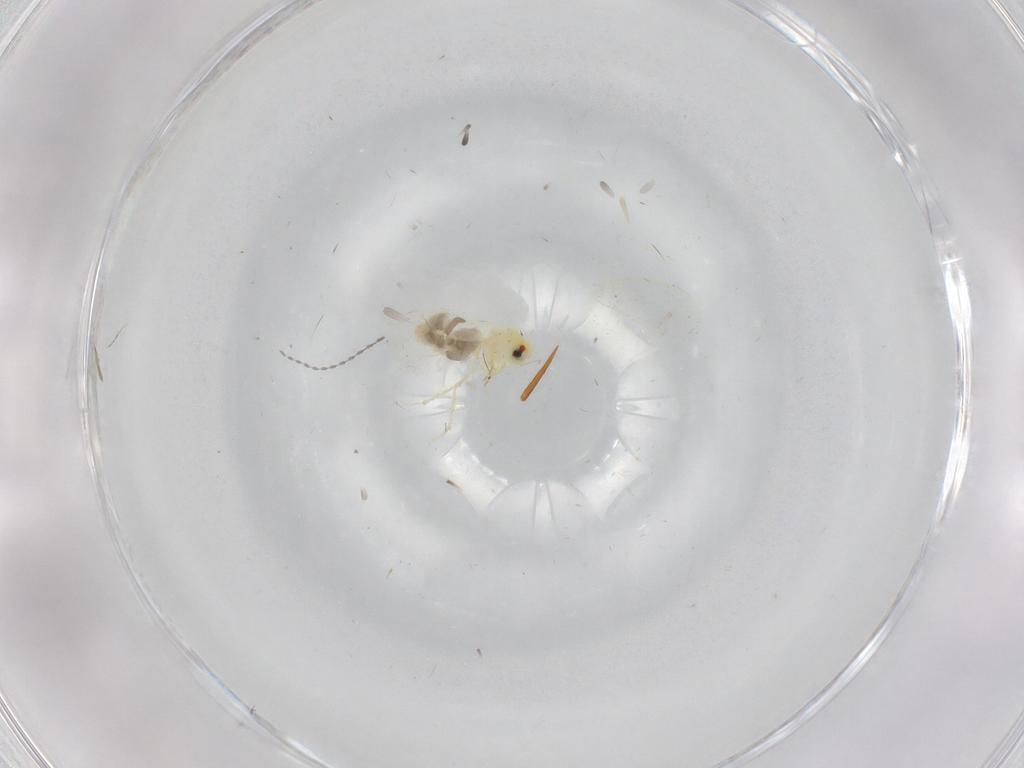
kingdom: Animalia
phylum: Arthropoda
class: Insecta
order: Hemiptera
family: Aleyrodidae
